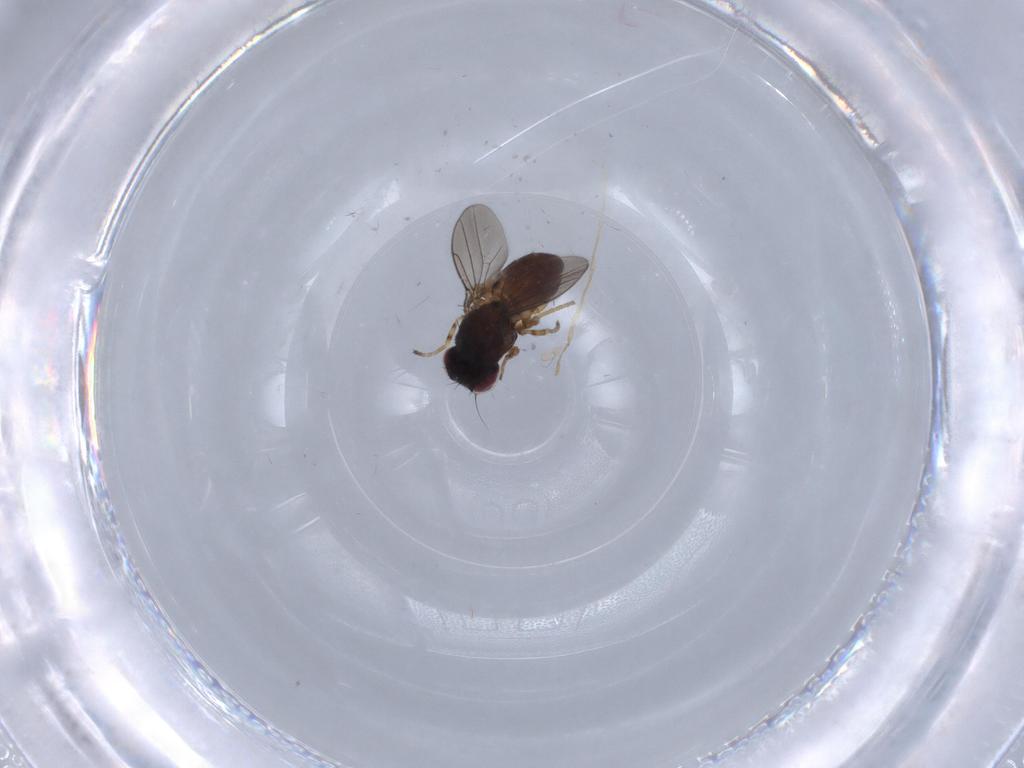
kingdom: Animalia
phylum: Arthropoda
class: Insecta
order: Diptera
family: Chloropidae
